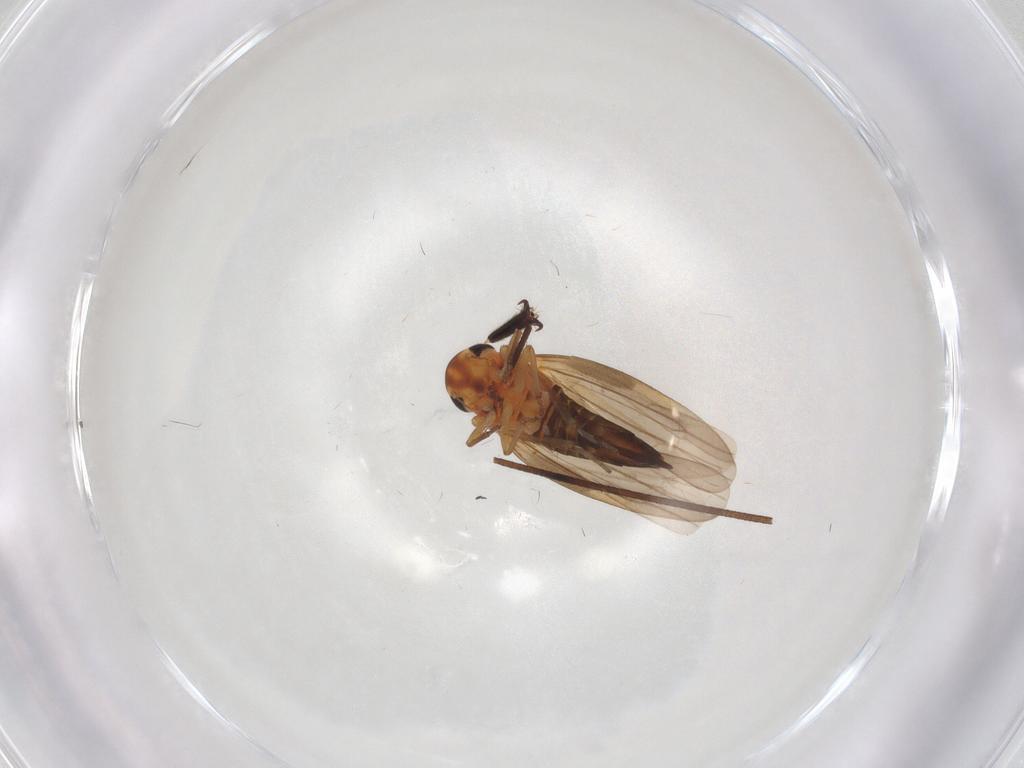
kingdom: Animalia
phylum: Arthropoda
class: Insecta
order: Hemiptera
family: Cicadellidae
